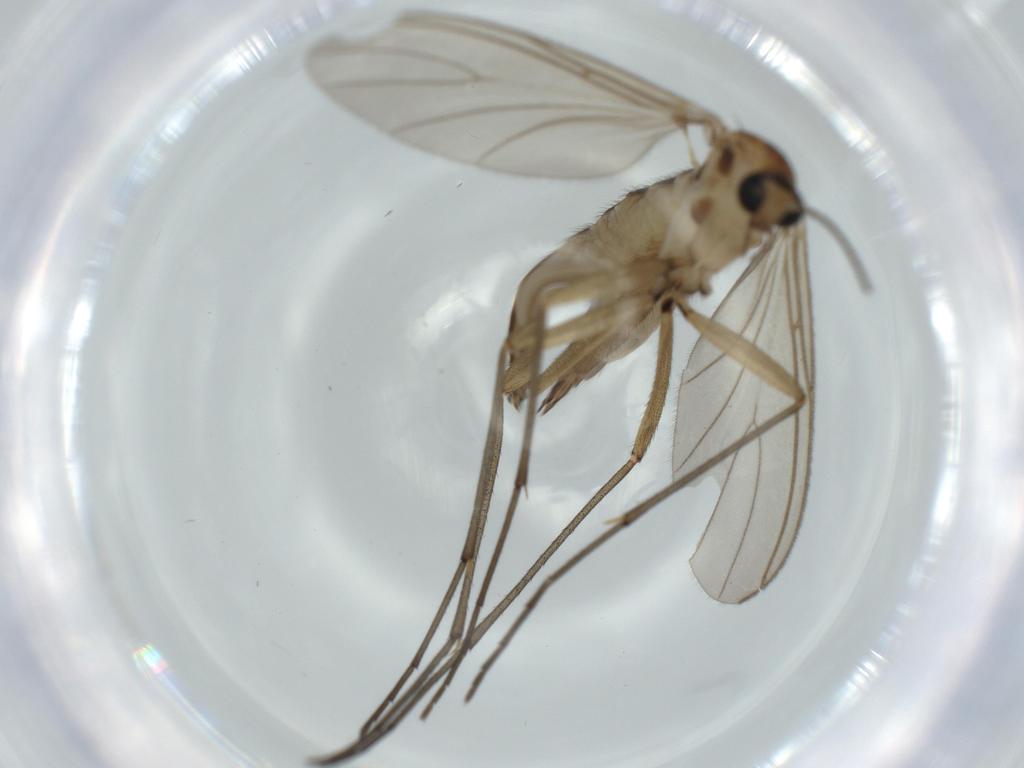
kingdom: Animalia
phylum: Arthropoda
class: Insecta
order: Diptera
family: Sciaridae
